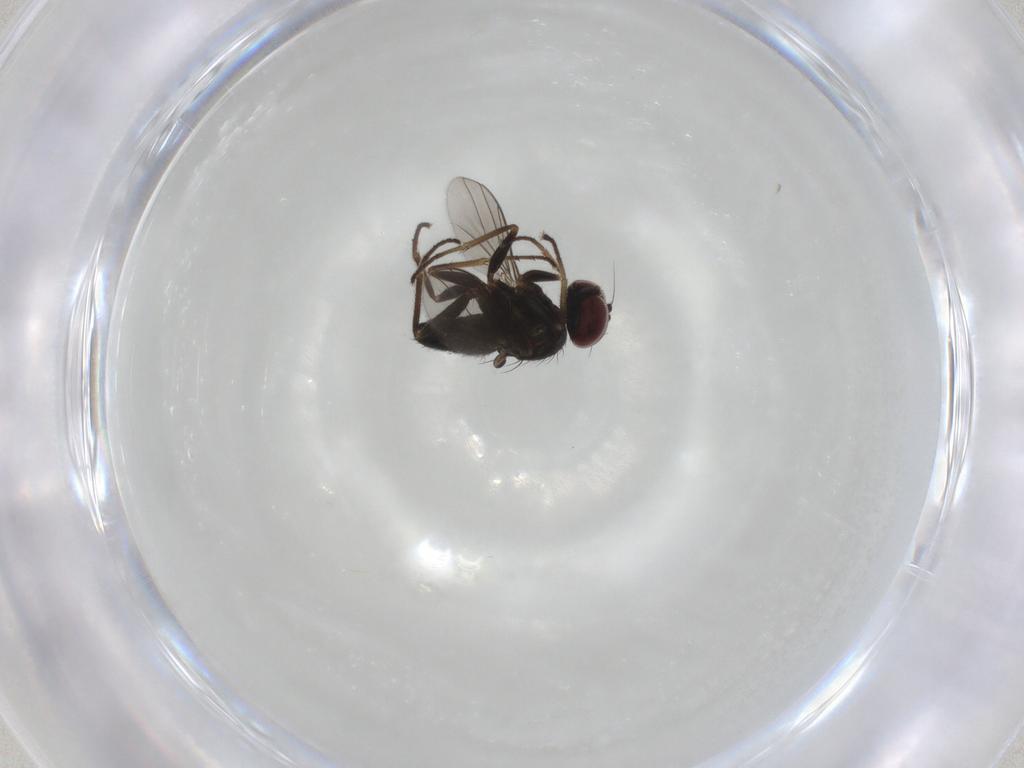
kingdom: Animalia
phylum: Arthropoda
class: Insecta
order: Diptera
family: Dolichopodidae
